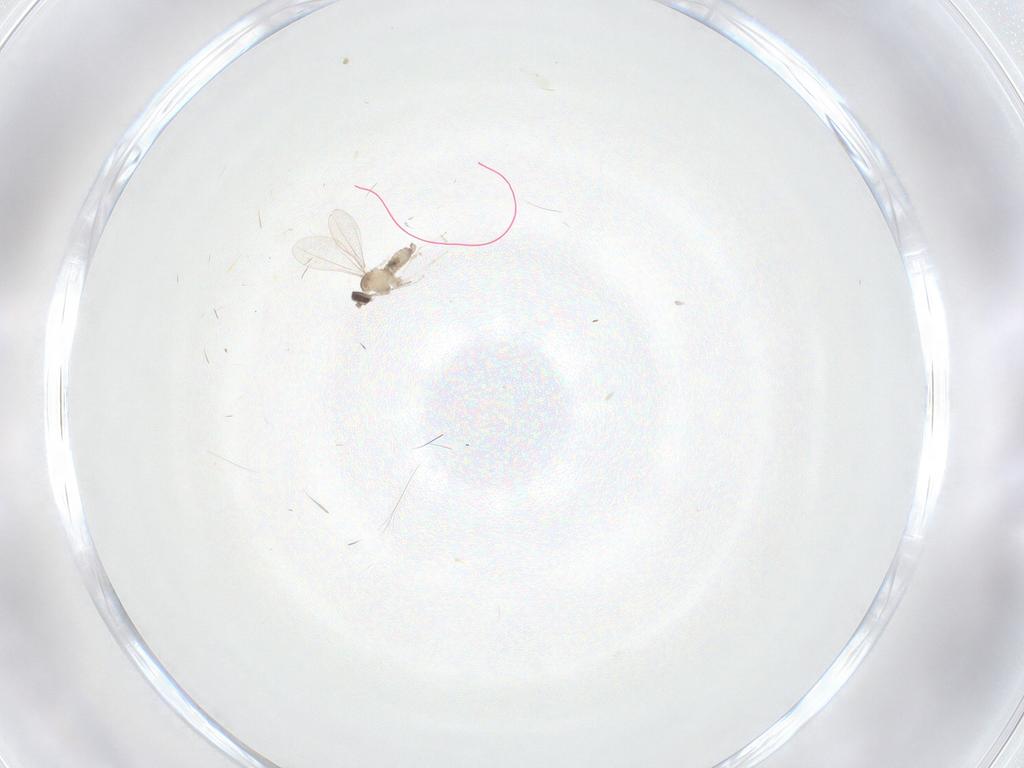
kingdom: Animalia
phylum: Arthropoda
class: Insecta
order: Diptera
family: Cecidomyiidae
